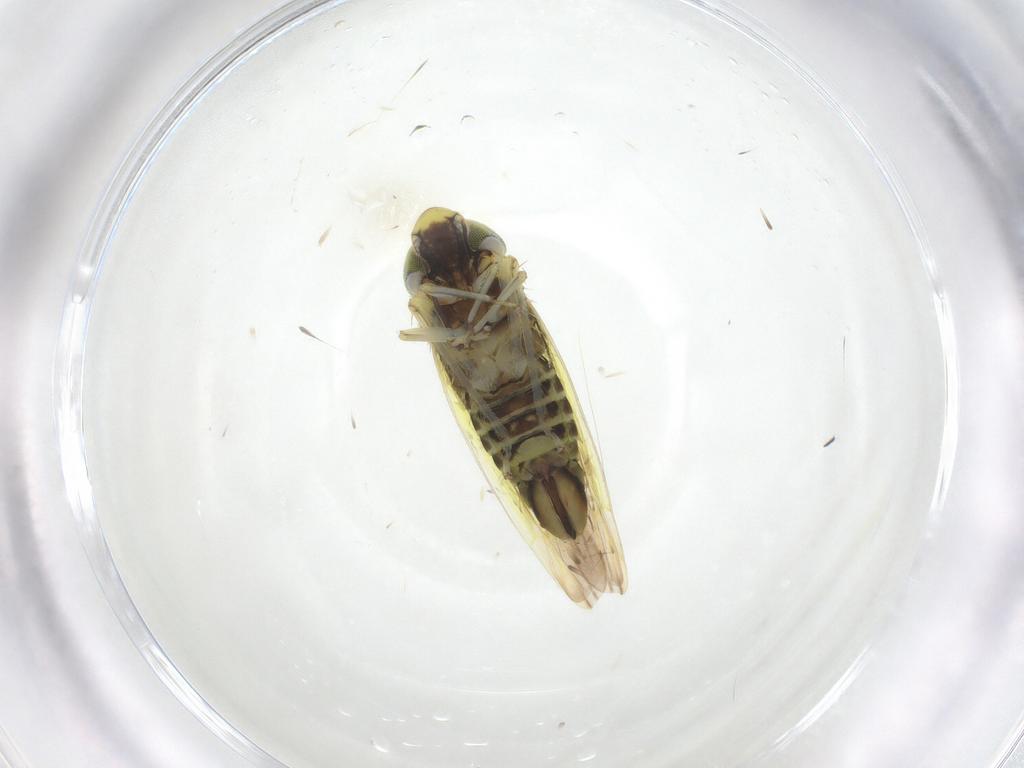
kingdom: Animalia
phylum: Arthropoda
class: Insecta
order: Hemiptera
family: Cicadellidae
